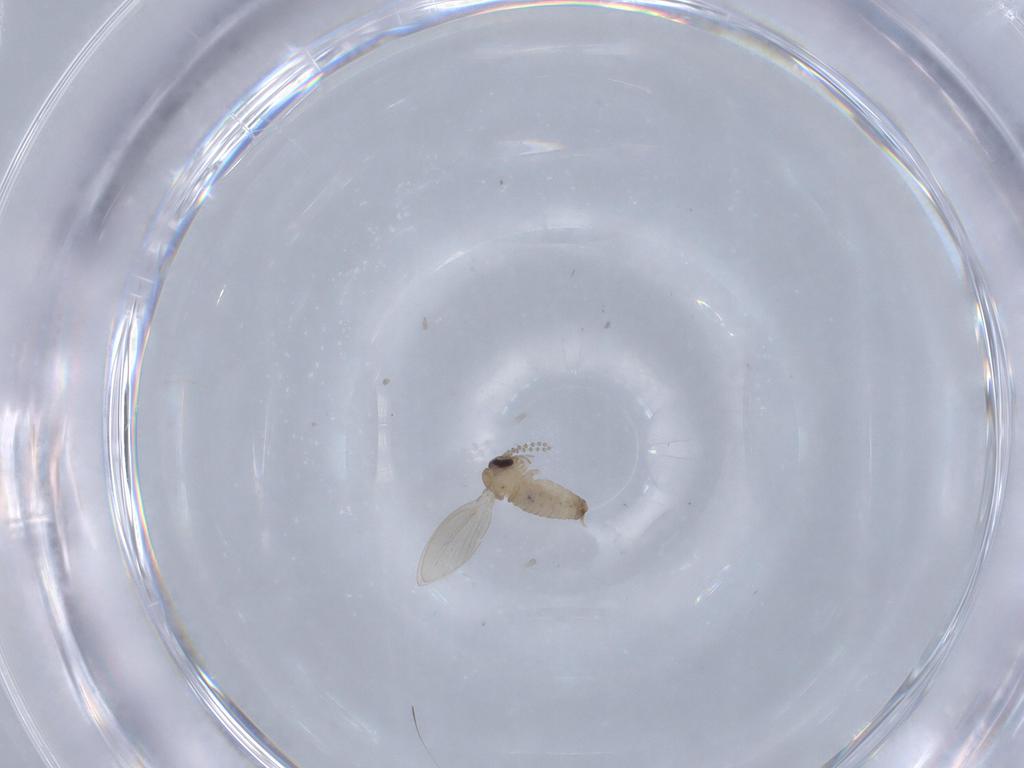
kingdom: Animalia
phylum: Arthropoda
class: Insecta
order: Diptera
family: Psychodidae
